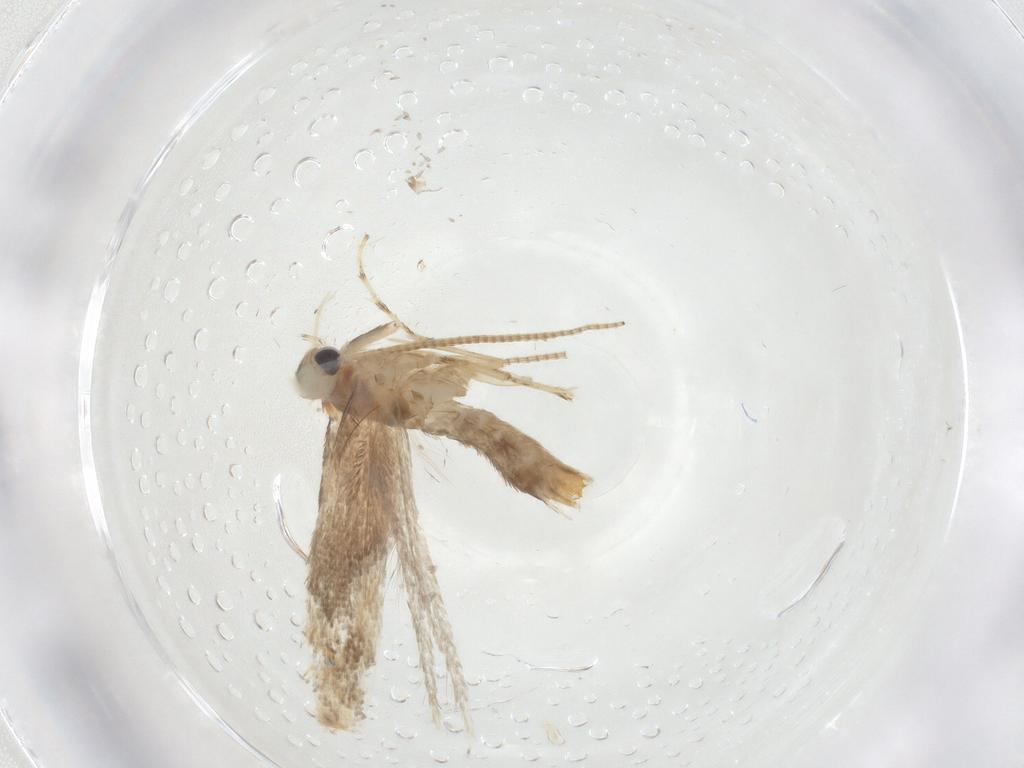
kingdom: Animalia
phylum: Arthropoda
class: Insecta
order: Lepidoptera
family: Gracillariidae
